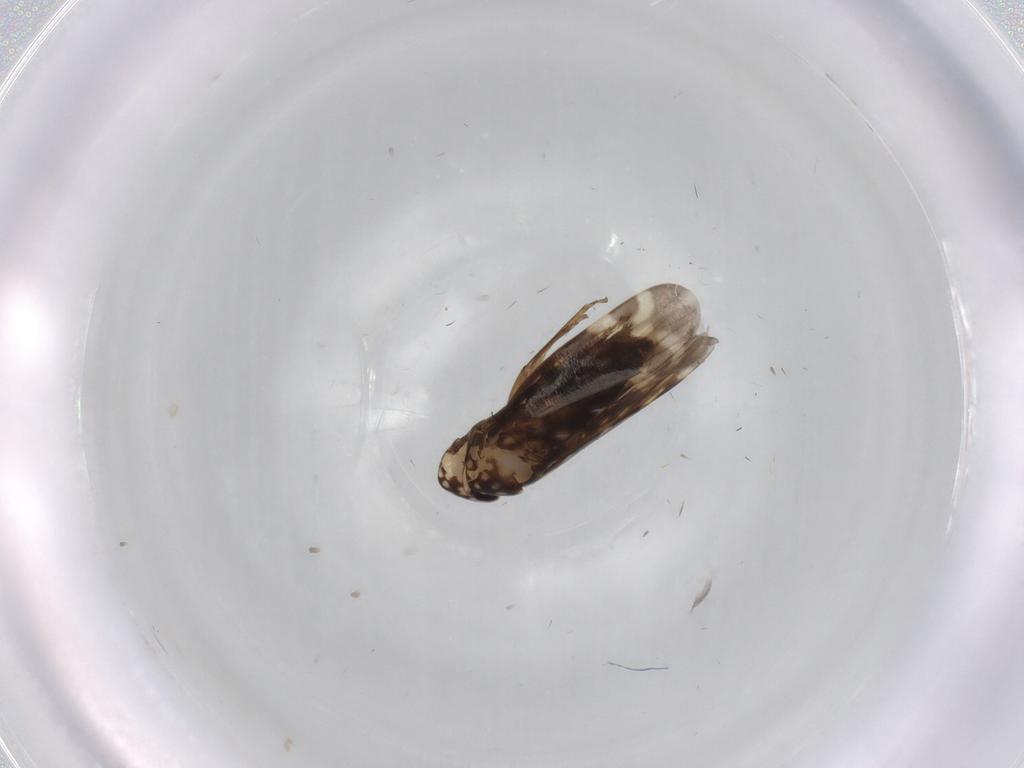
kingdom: Animalia
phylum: Arthropoda
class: Insecta
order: Hemiptera
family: Cicadellidae
